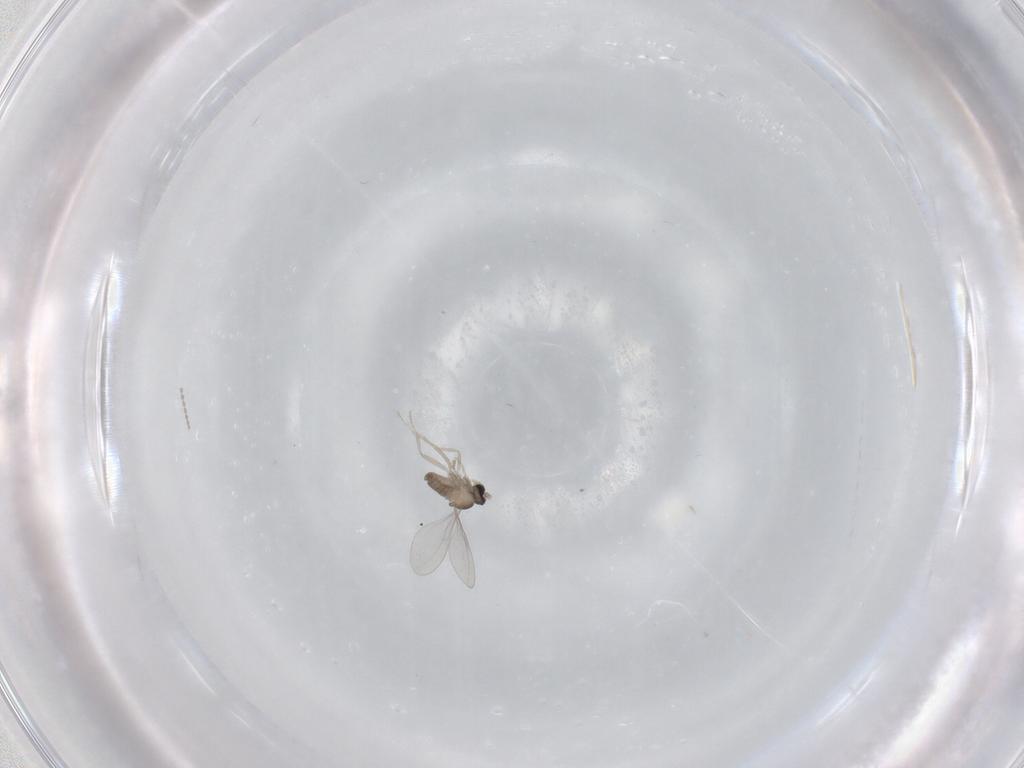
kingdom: Animalia
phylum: Arthropoda
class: Insecta
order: Diptera
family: Cecidomyiidae
